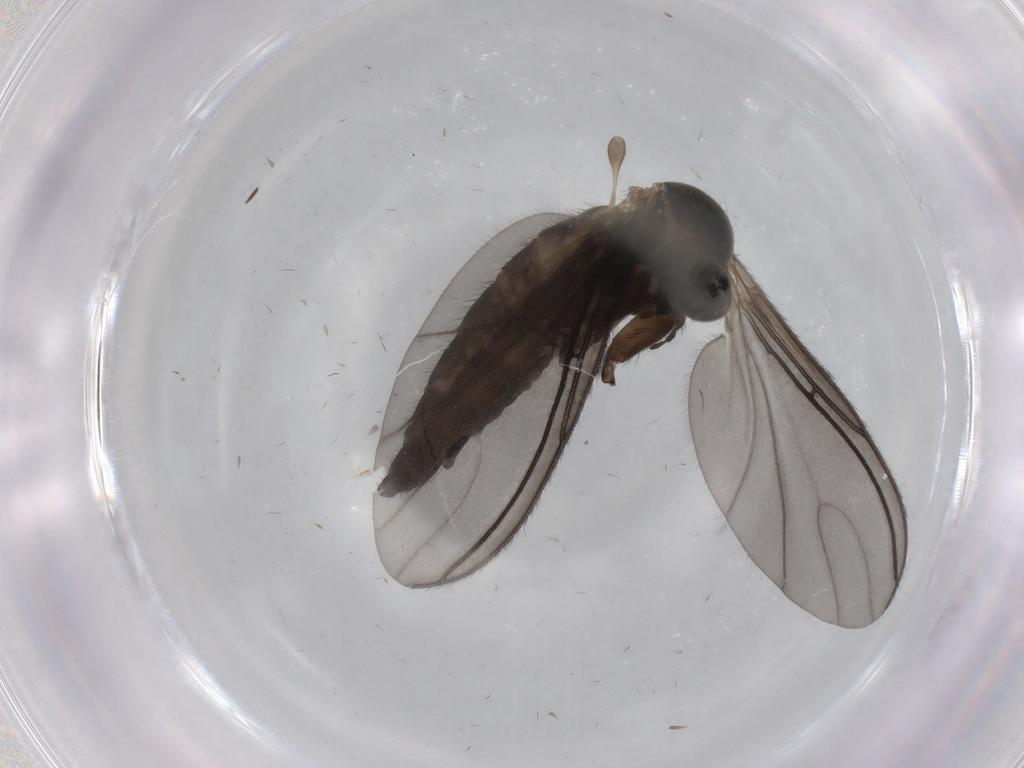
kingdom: Animalia
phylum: Arthropoda
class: Insecta
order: Diptera
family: Sciaridae
